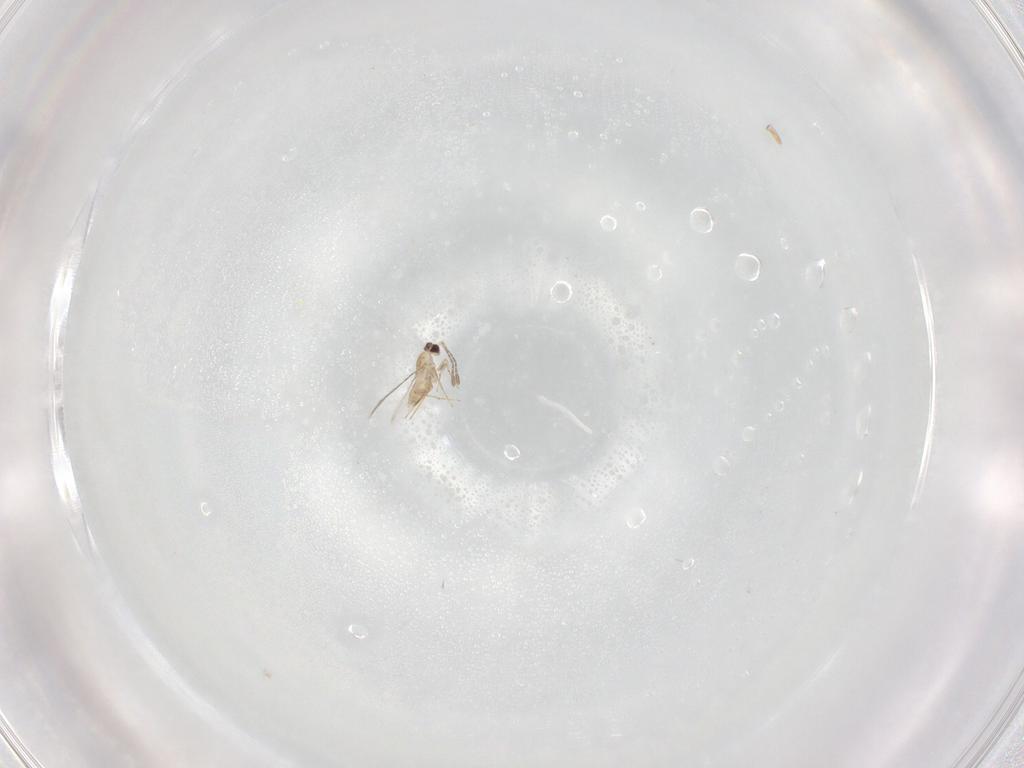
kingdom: Animalia
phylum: Arthropoda
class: Insecta
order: Hymenoptera
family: Mymaridae
